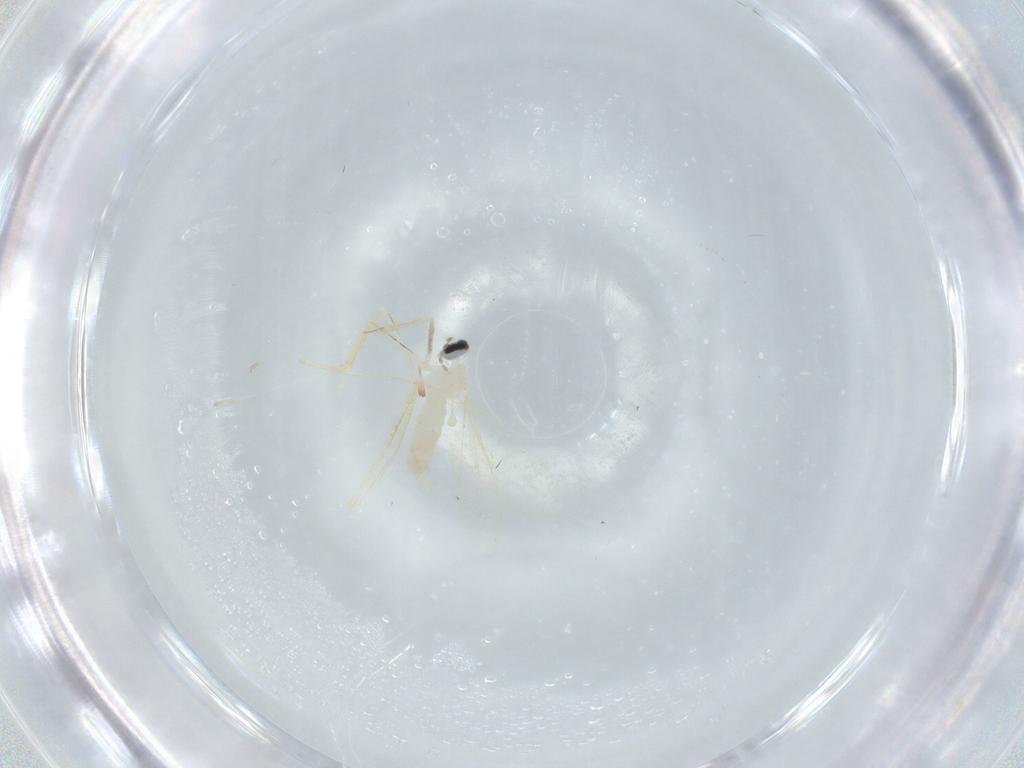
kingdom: Animalia
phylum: Arthropoda
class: Insecta
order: Diptera
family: Cecidomyiidae
